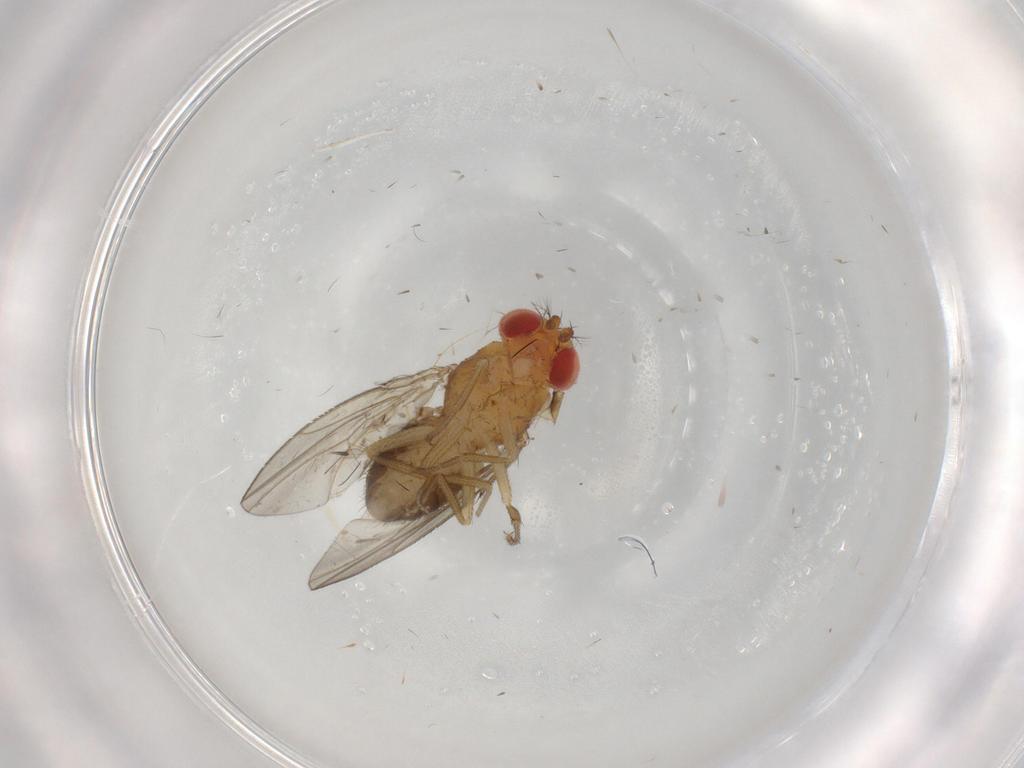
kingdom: Animalia
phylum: Arthropoda
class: Insecta
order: Diptera
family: Drosophilidae
